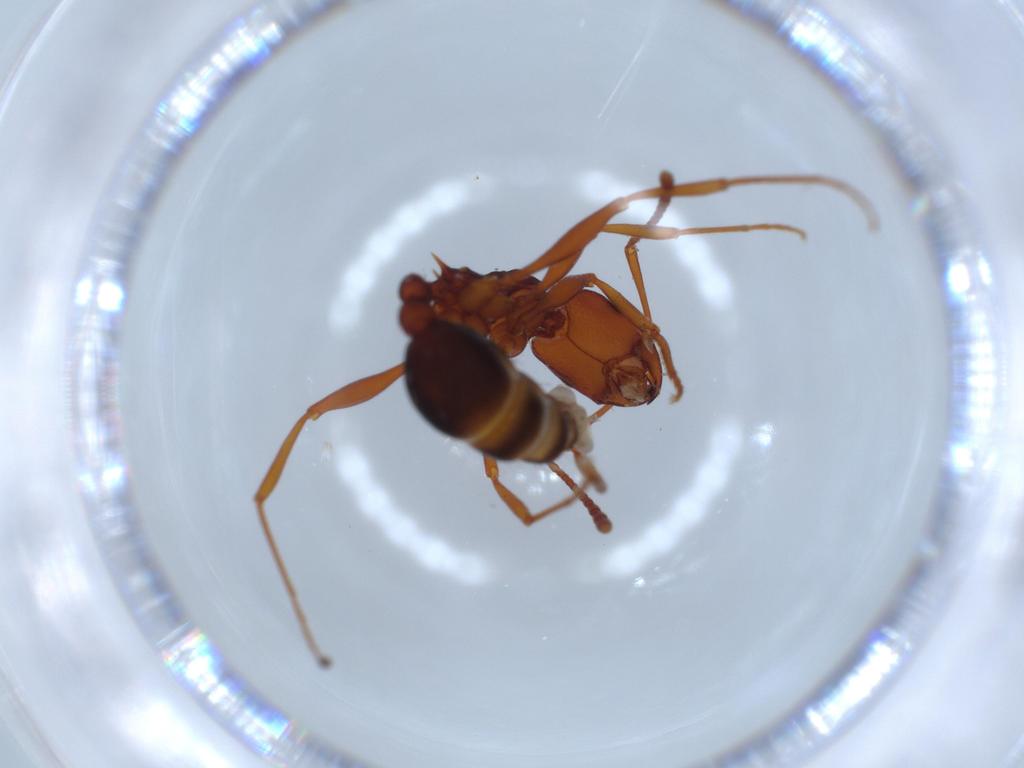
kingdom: Animalia
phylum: Arthropoda
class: Insecta
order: Hymenoptera
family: Formicidae
